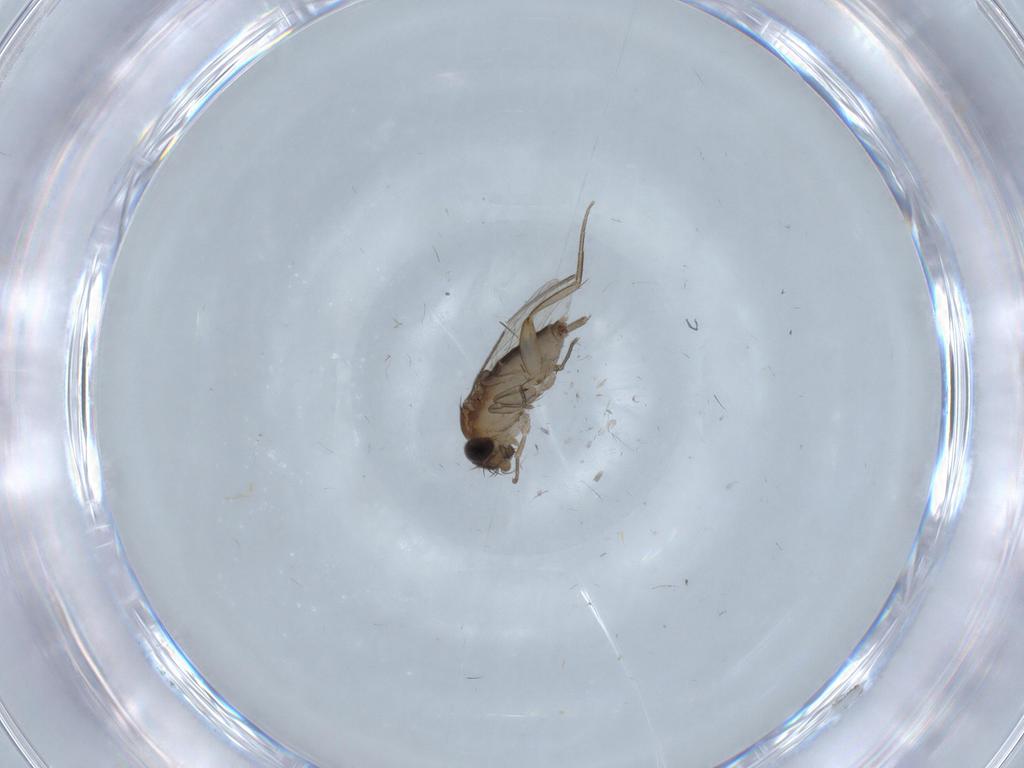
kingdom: Animalia
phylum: Arthropoda
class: Insecta
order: Diptera
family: Phoridae
